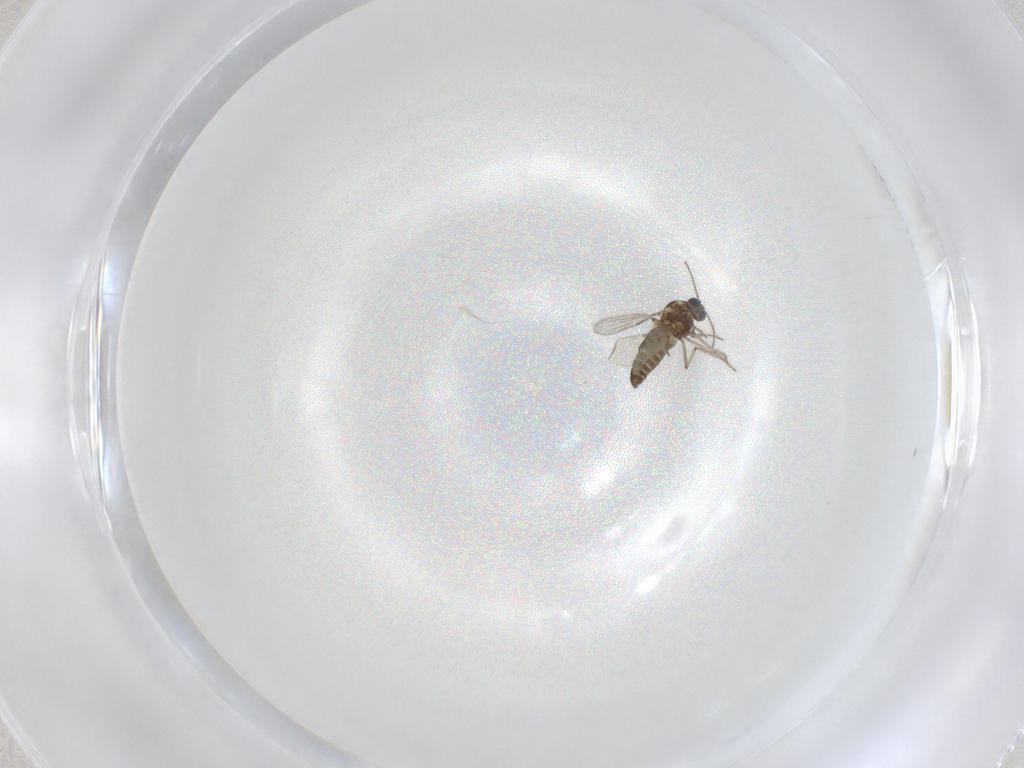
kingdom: Animalia
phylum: Arthropoda
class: Insecta
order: Diptera
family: Ceratopogonidae
